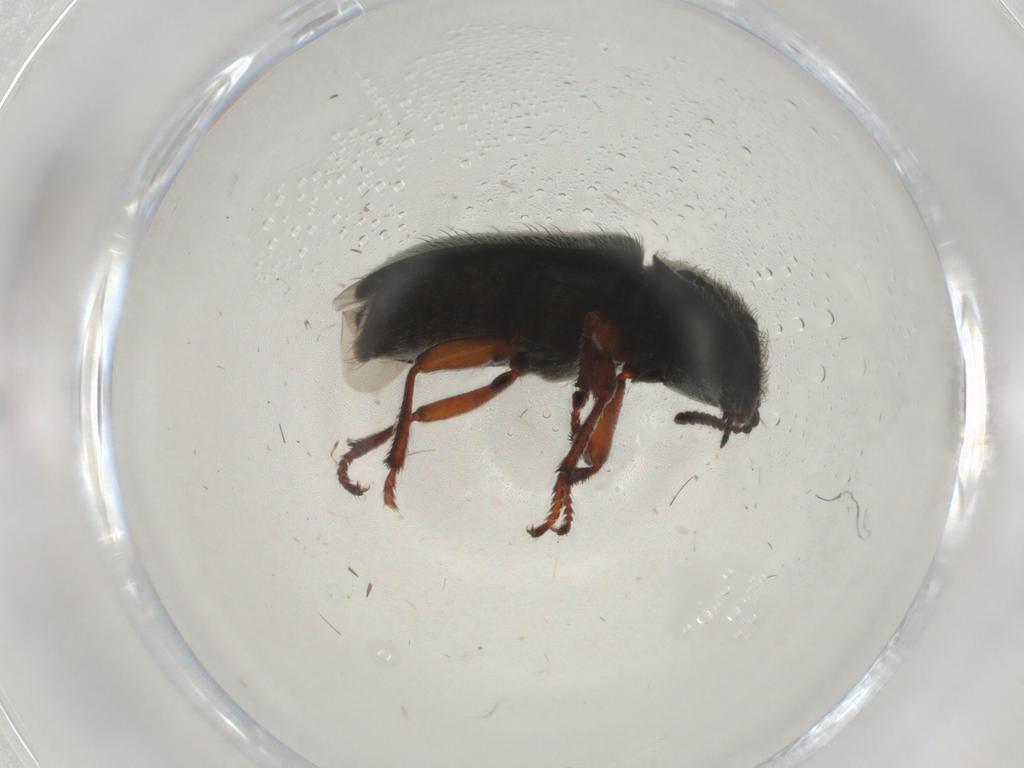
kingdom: Animalia
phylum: Arthropoda
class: Insecta
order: Coleoptera
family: Melyridae
